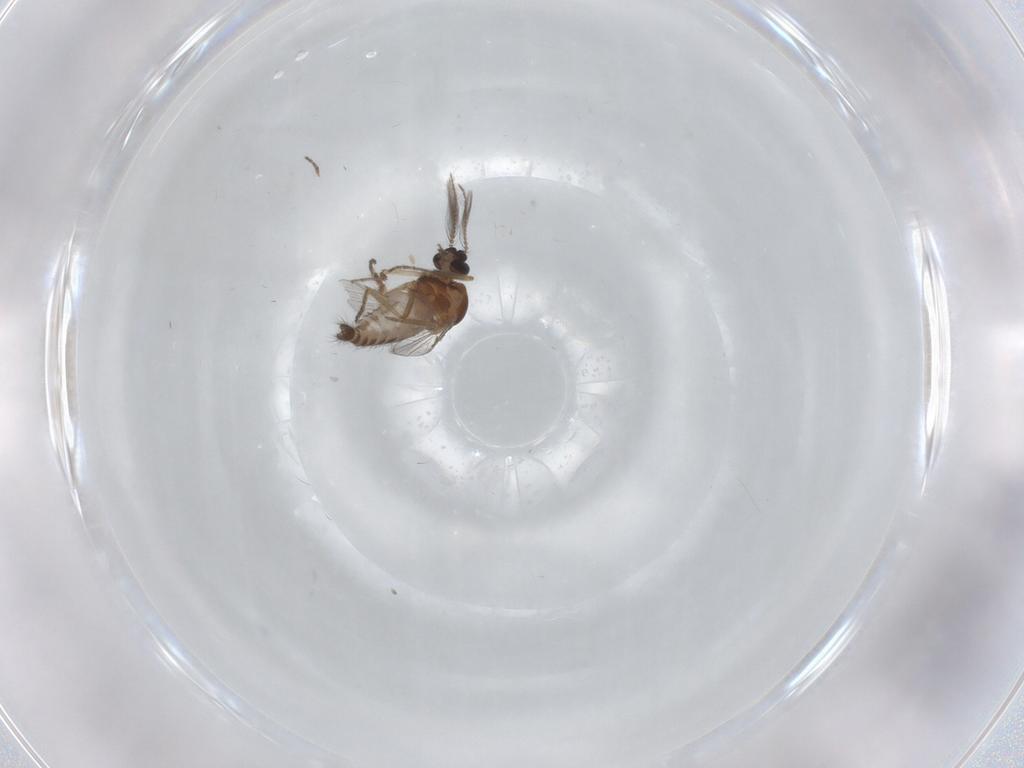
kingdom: Animalia
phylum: Arthropoda
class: Insecta
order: Diptera
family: Ceratopogonidae
